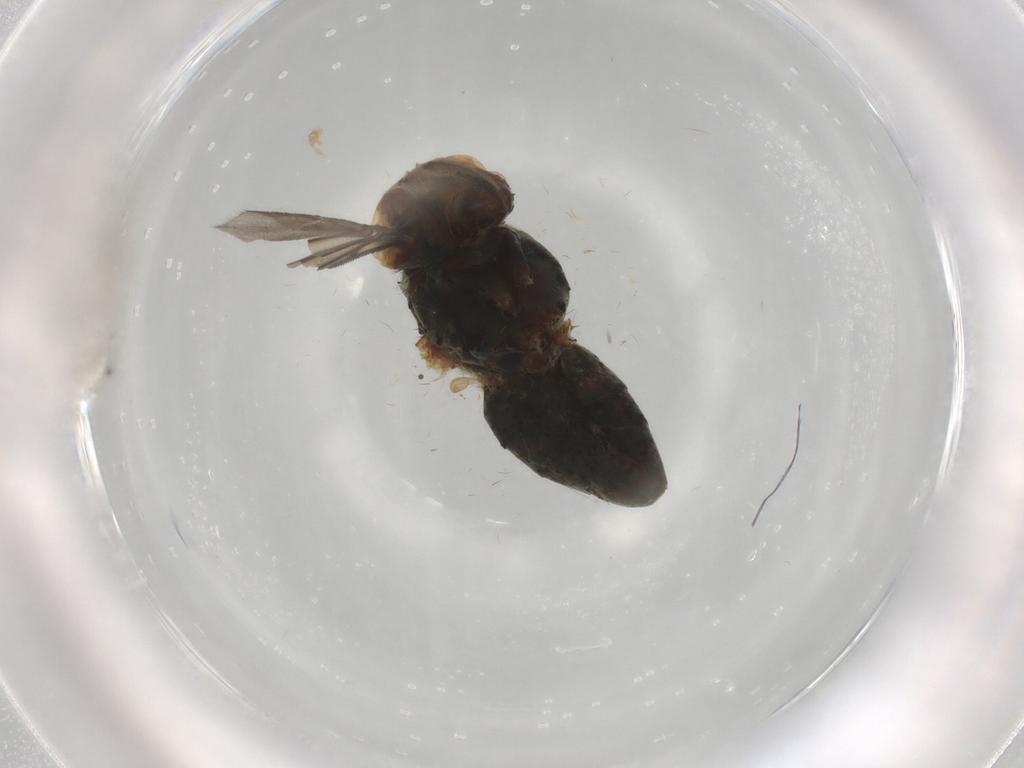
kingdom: Animalia
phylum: Arthropoda
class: Insecta
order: Diptera
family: Ephydridae
